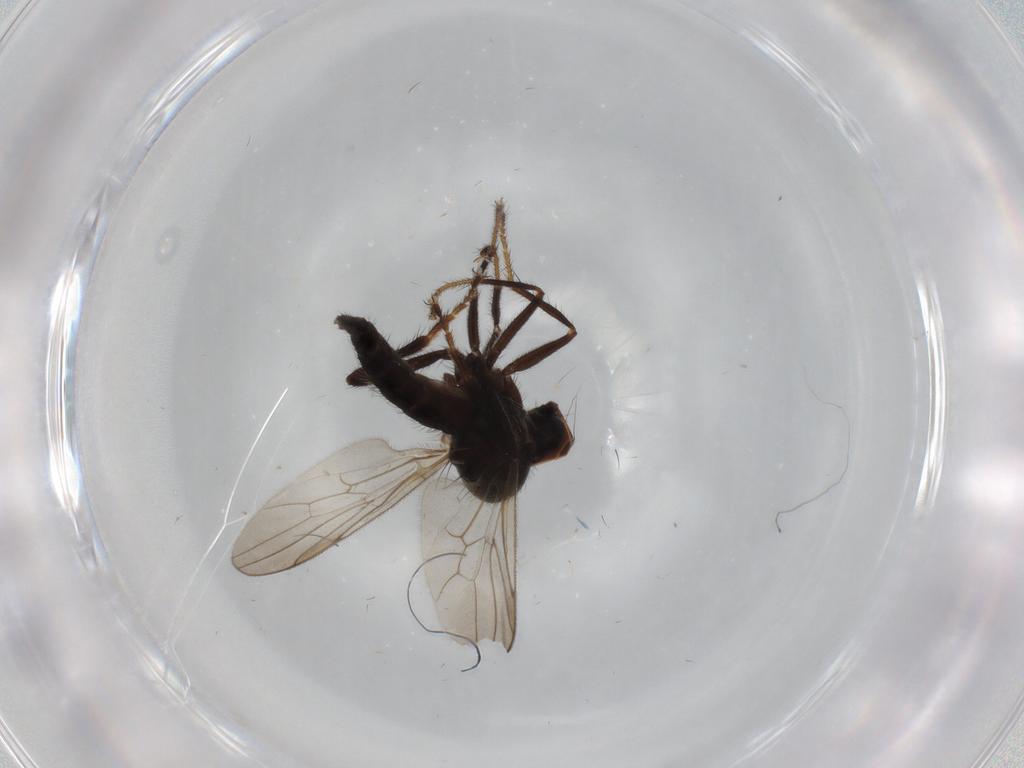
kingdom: Animalia
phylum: Arthropoda
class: Insecta
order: Diptera
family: Hybotidae
